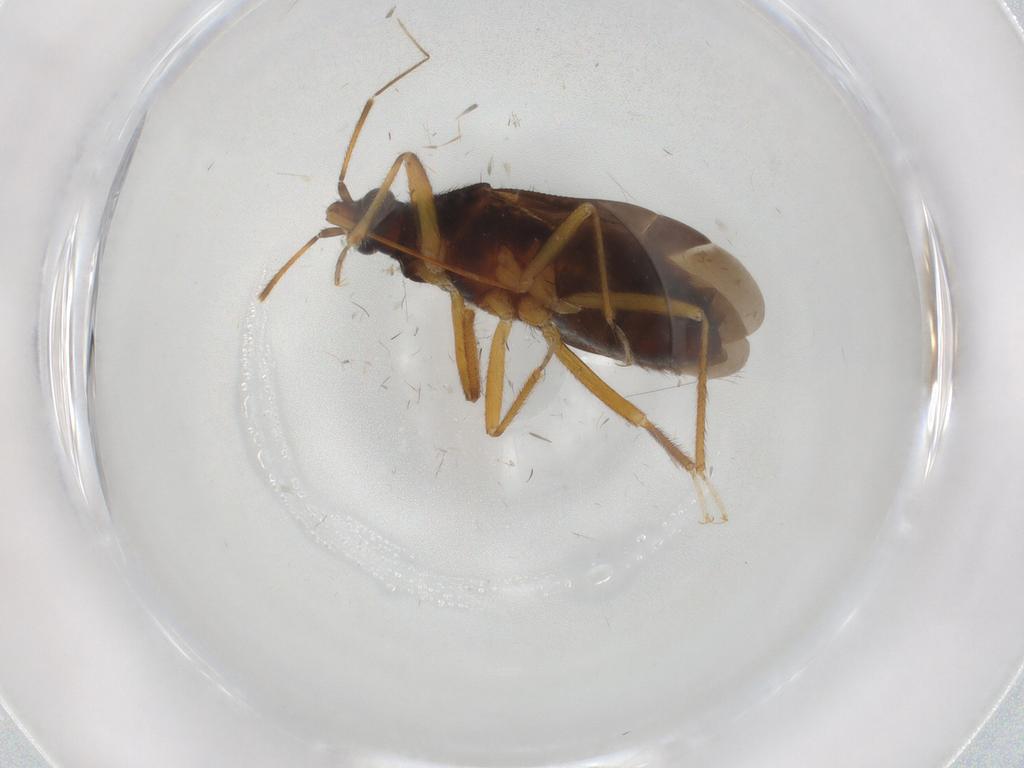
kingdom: Animalia
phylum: Arthropoda
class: Insecta
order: Hemiptera
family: Anthocoridae
